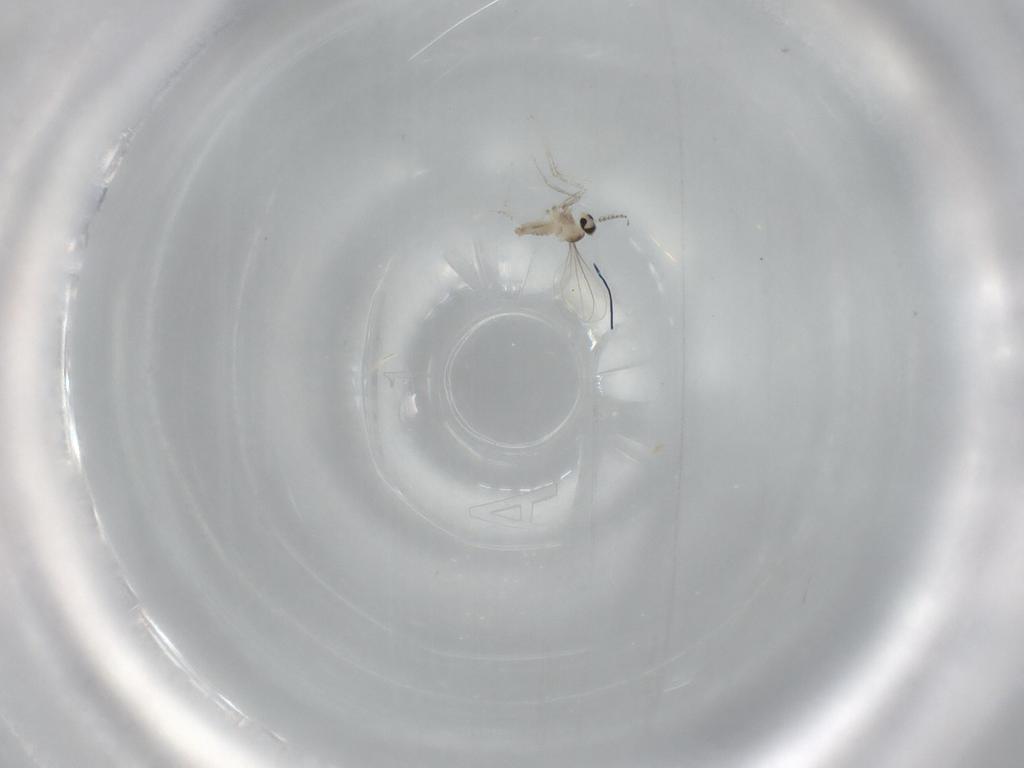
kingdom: Animalia
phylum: Arthropoda
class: Insecta
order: Diptera
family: Cecidomyiidae
